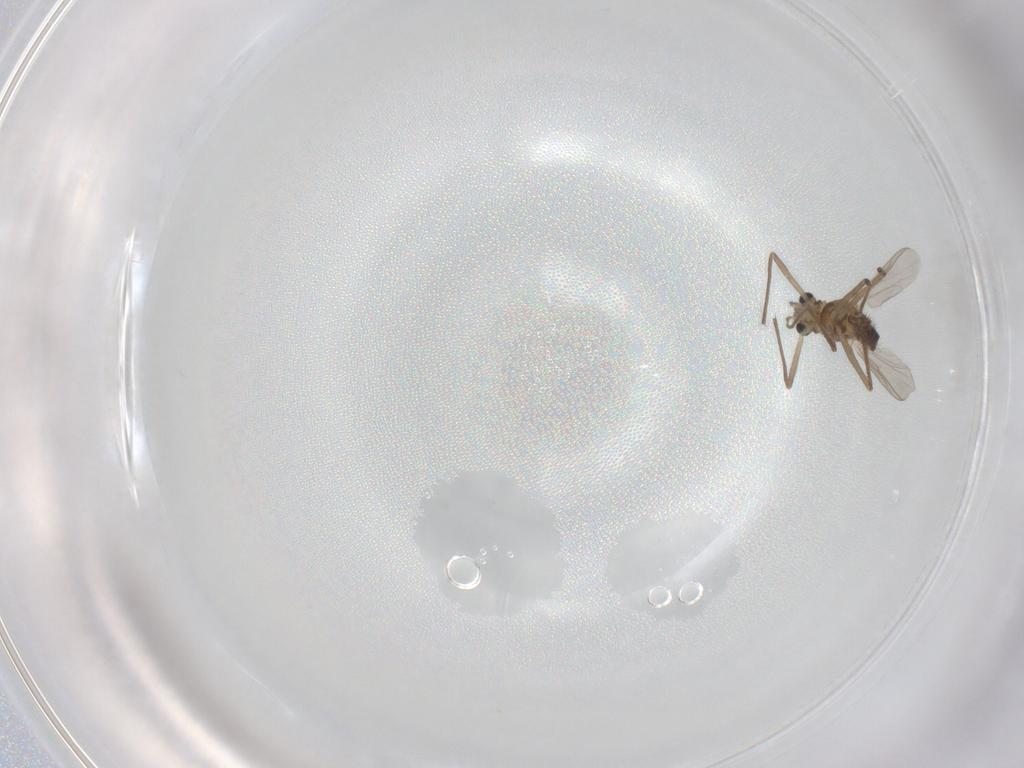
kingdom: Animalia
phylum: Arthropoda
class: Insecta
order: Diptera
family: Chironomidae
